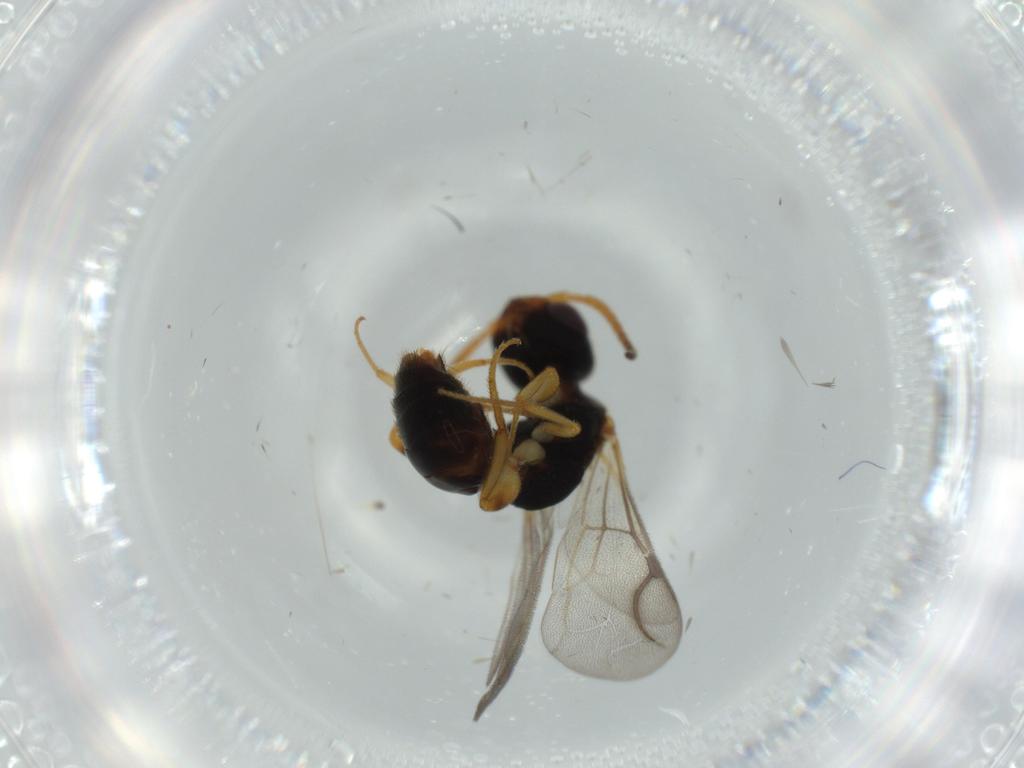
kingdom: Animalia
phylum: Arthropoda
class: Insecta
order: Hymenoptera
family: Bethylidae
